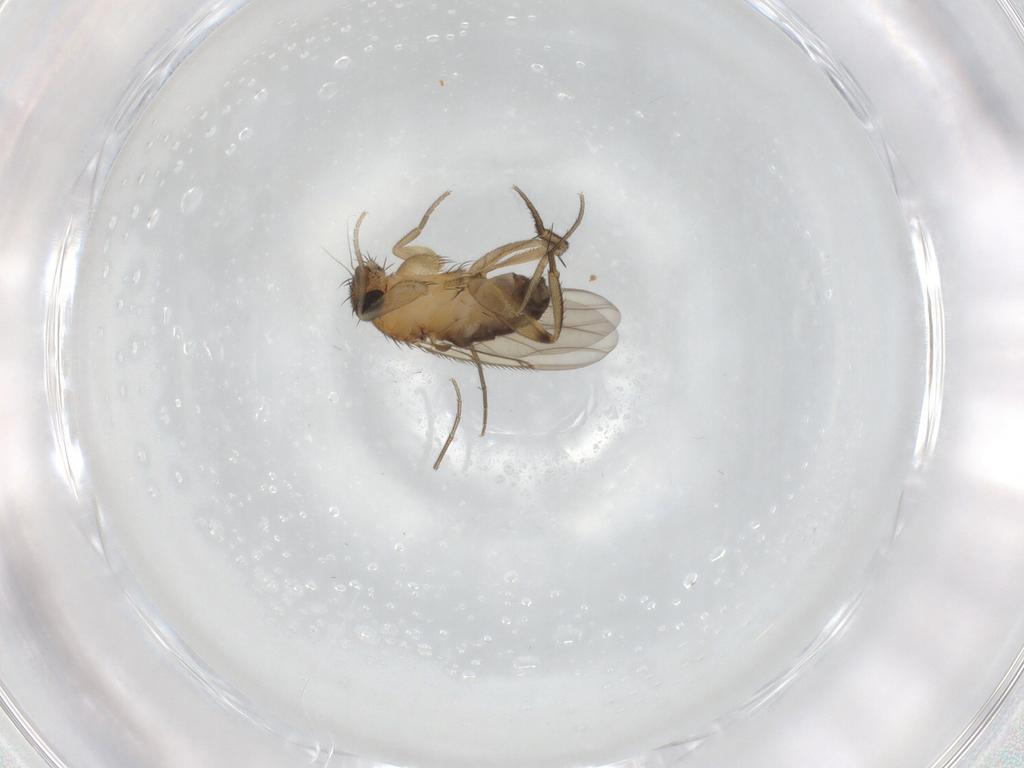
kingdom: Animalia
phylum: Arthropoda
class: Insecta
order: Diptera
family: Phoridae
